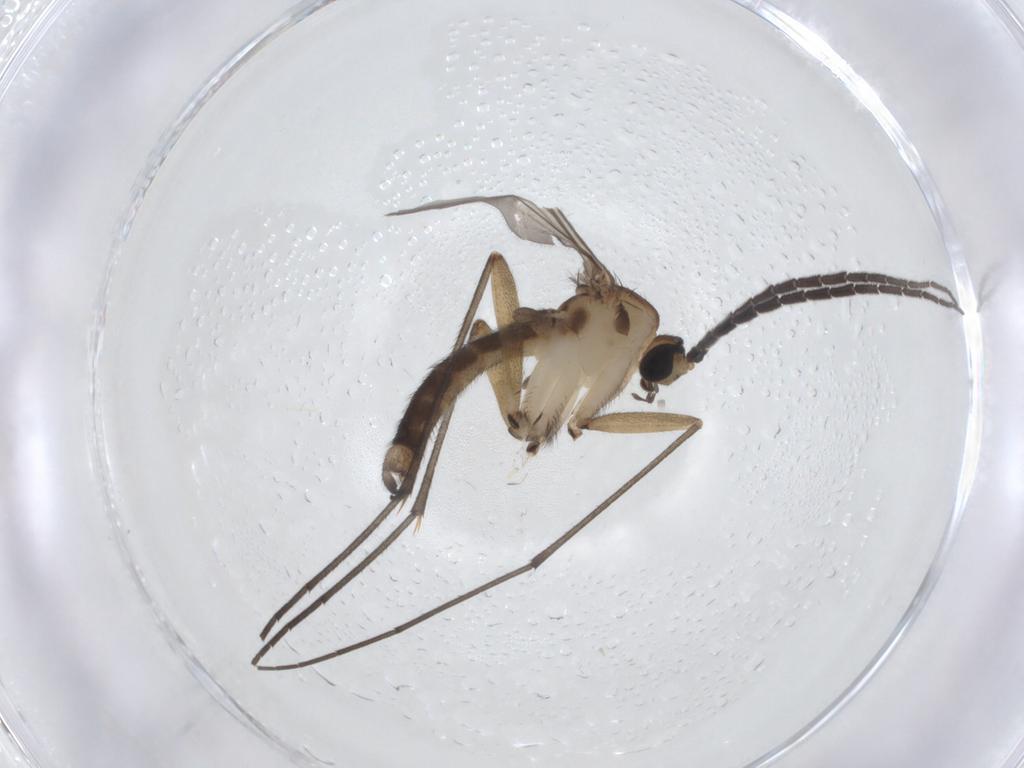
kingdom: Animalia
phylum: Arthropoda
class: Insecta
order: Diptera
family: Sciaridae
